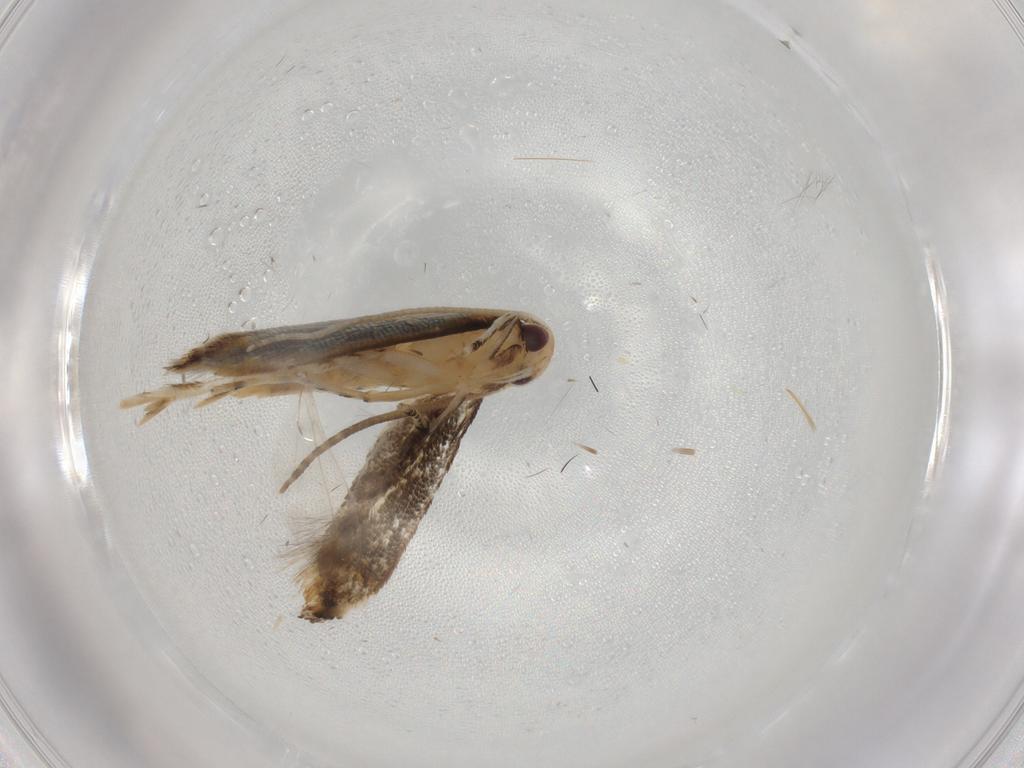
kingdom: Animalia
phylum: Arthropoda
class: Insecta
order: Lepidoptera
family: Momphidae
